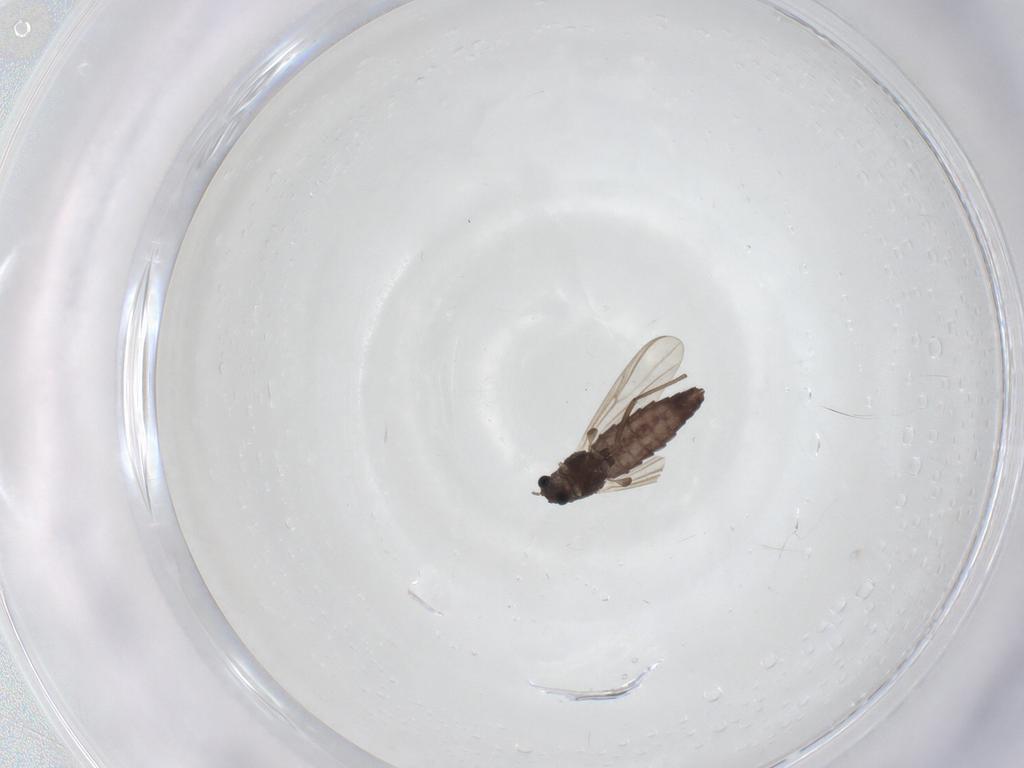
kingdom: Animalia
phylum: Arthropoda
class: Insecta
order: Diptera
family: Chironomidae
